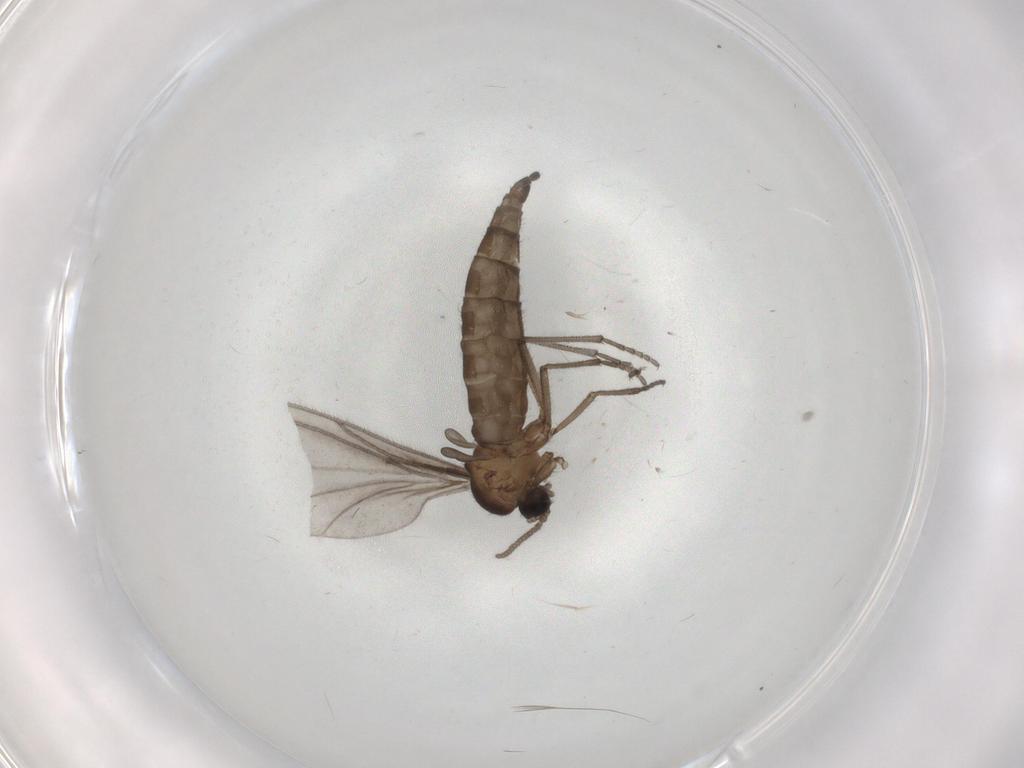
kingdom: Animalia
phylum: Arthropoda
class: Insecta
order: Diptera
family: Sciaridae
